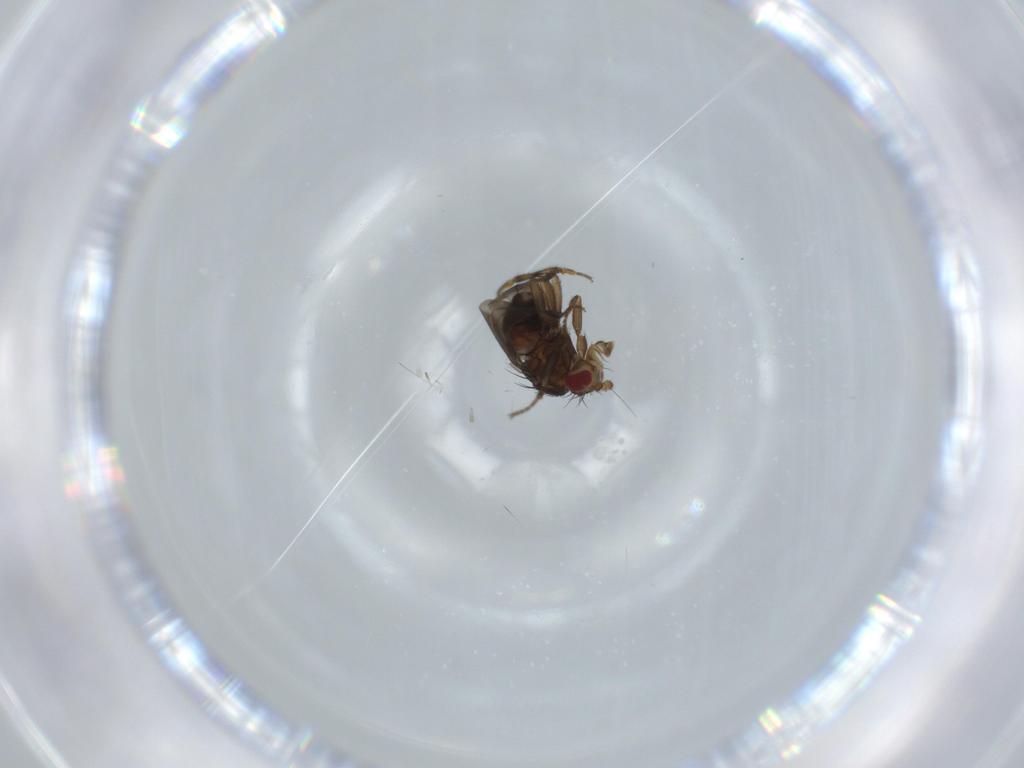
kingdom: Animalia
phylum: Arthropoda
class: Insecta
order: Diptera
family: Sphaeroceridae
